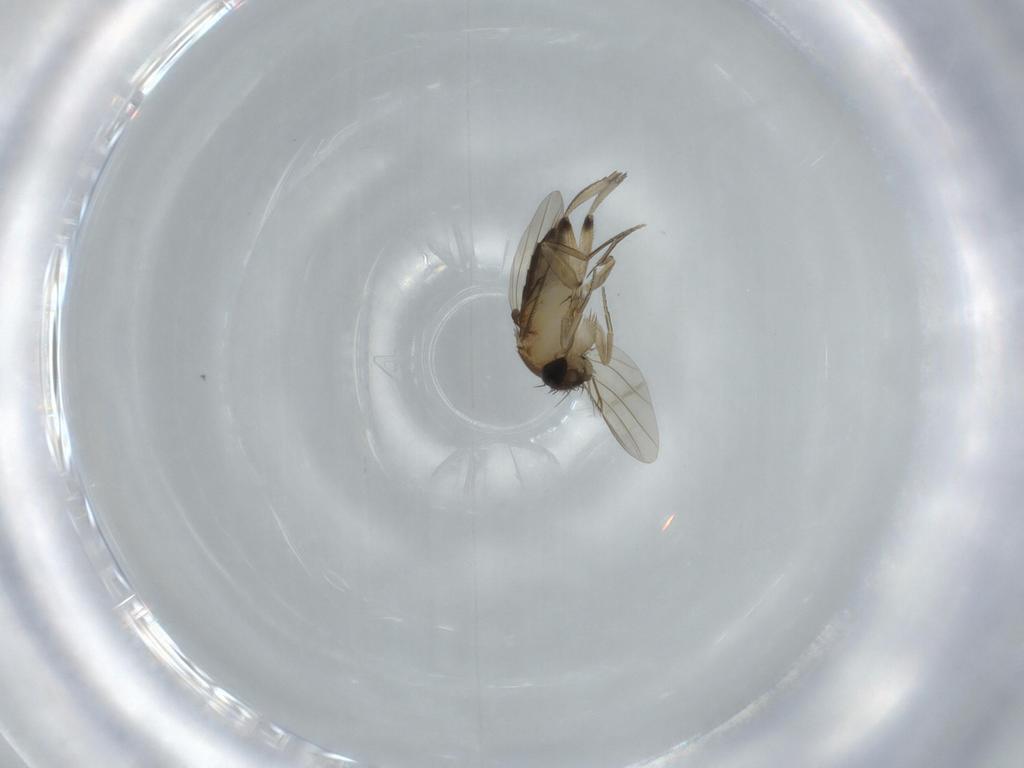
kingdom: Animalia
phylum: Arthropoda
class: Insecta
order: Diptera
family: Phoridae
